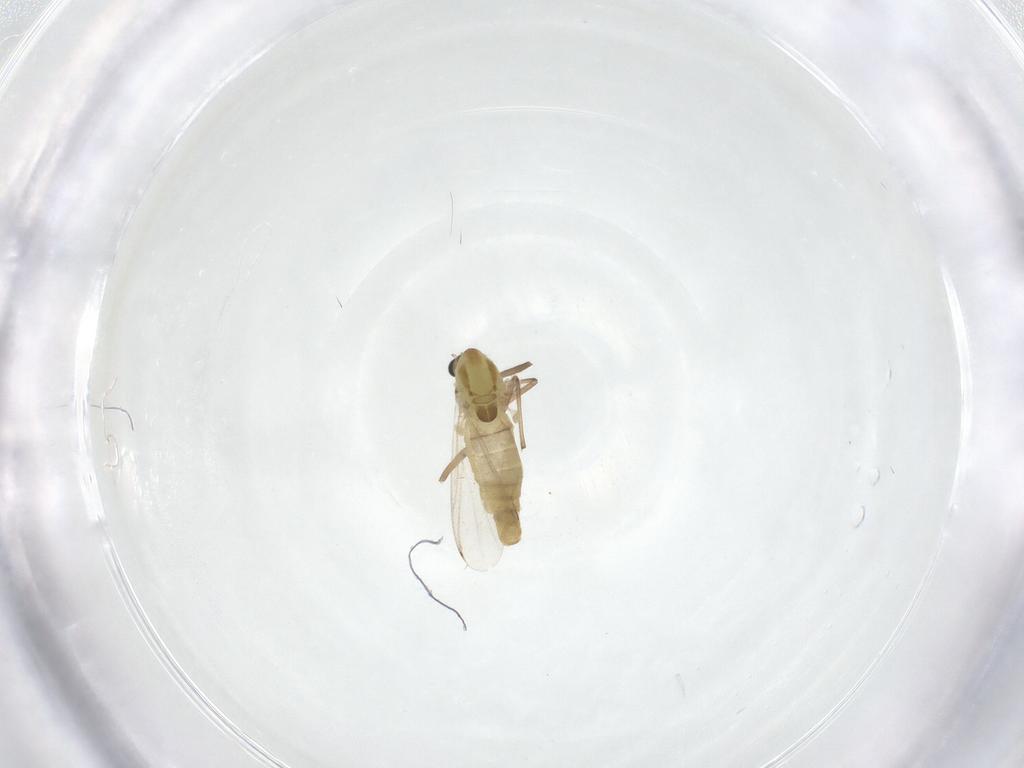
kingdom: Animalia
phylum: Arthropoda
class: Insecta
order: Diptera
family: Chironomidae
